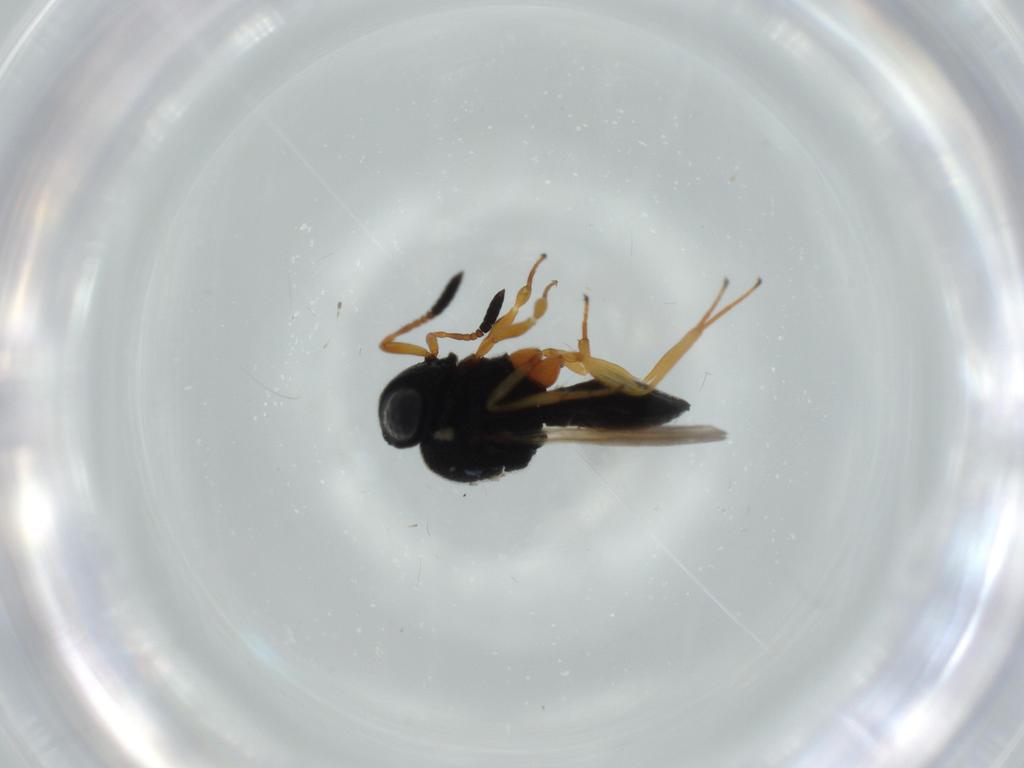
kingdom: Animalia
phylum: Arthropoda
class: Insecta
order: Hymenoptera
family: Scelionidae
